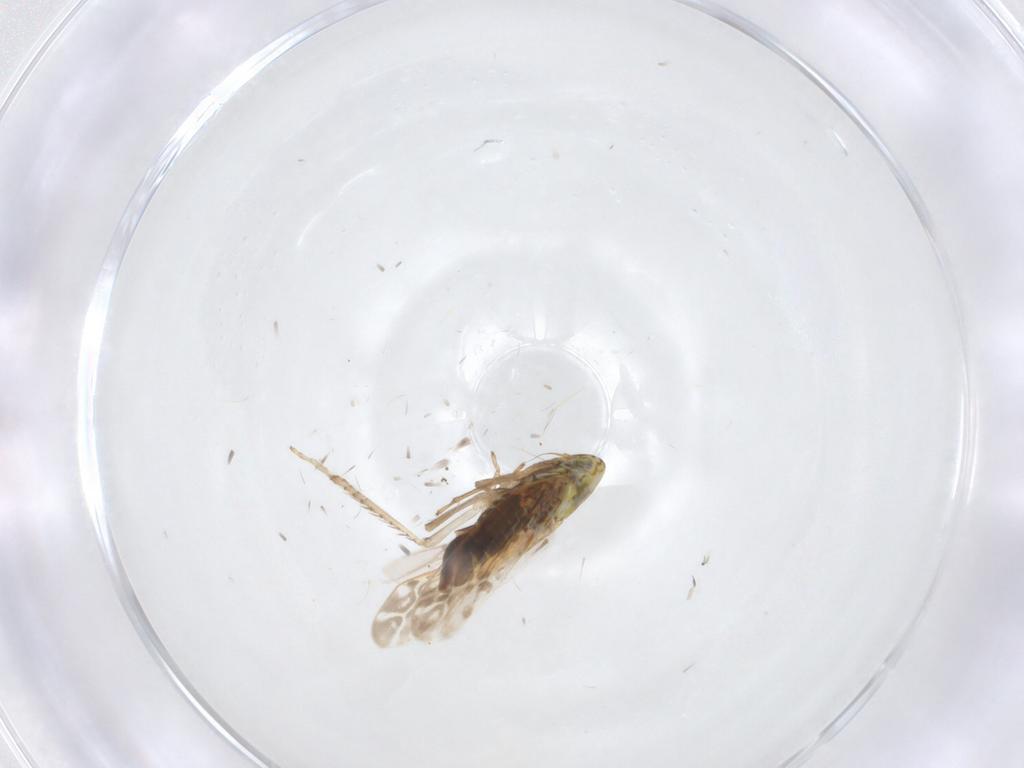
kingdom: Animalia
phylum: Arthropoda
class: Insecta
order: Hemiptera
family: Cicadellidae
